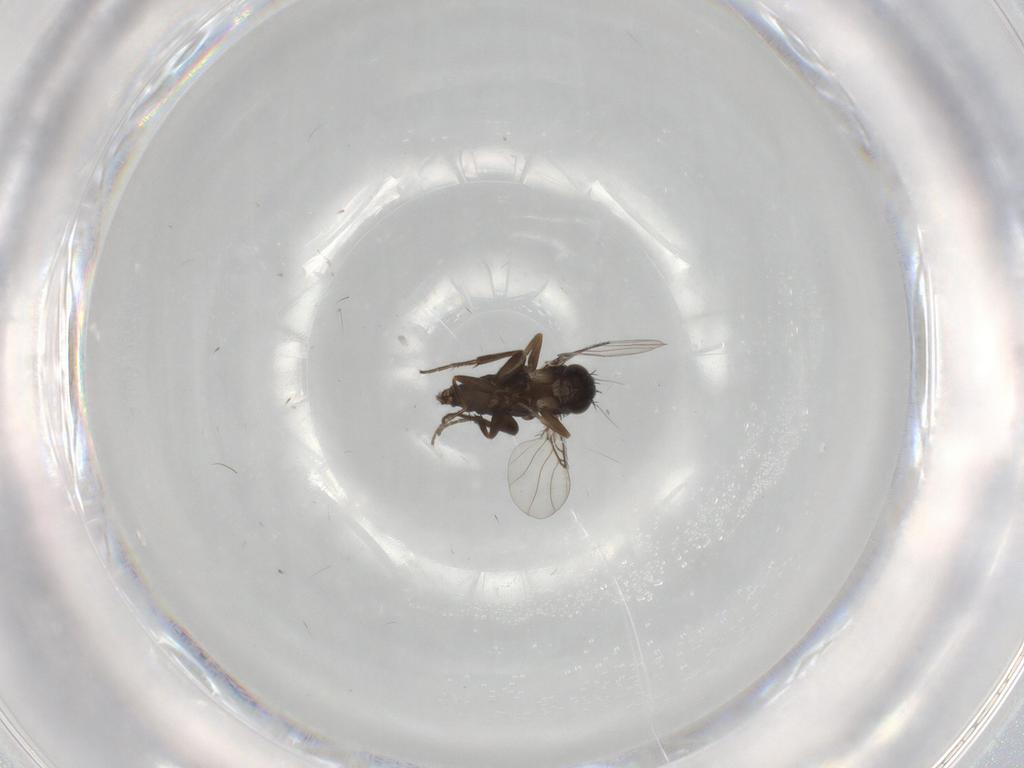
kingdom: Animalia
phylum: Arthropoda
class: Insecta
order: Diptera
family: Phoridae
